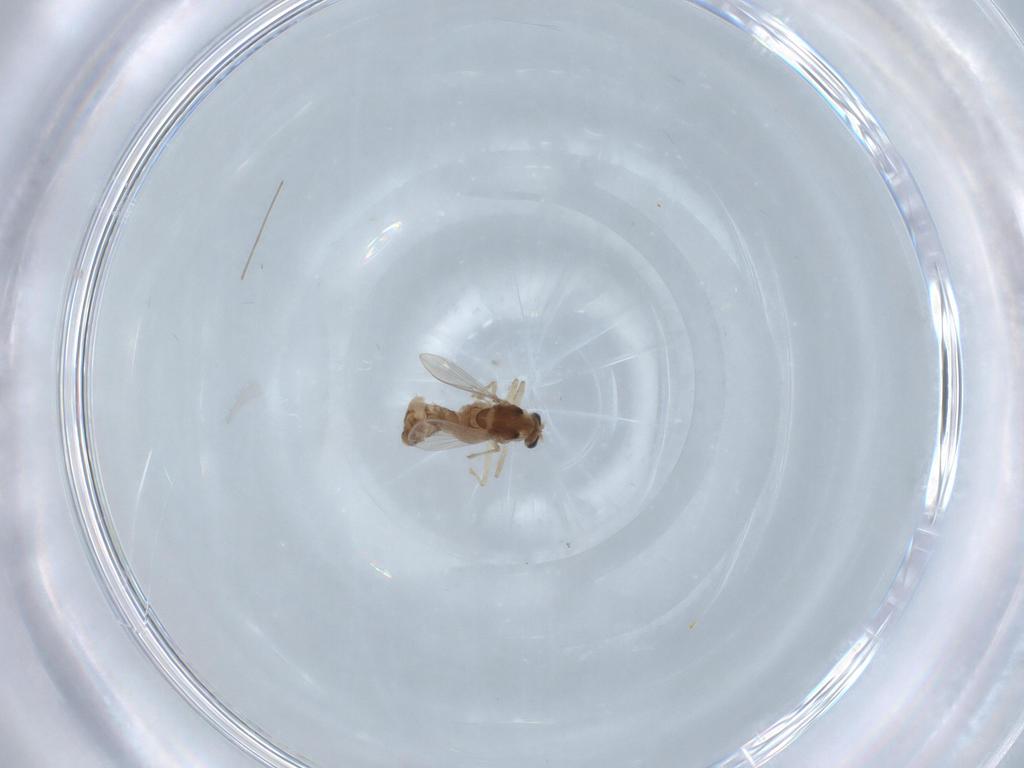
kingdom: Animalia
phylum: Arthropoda
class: Insecta
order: Diptera
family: Chironomidae
